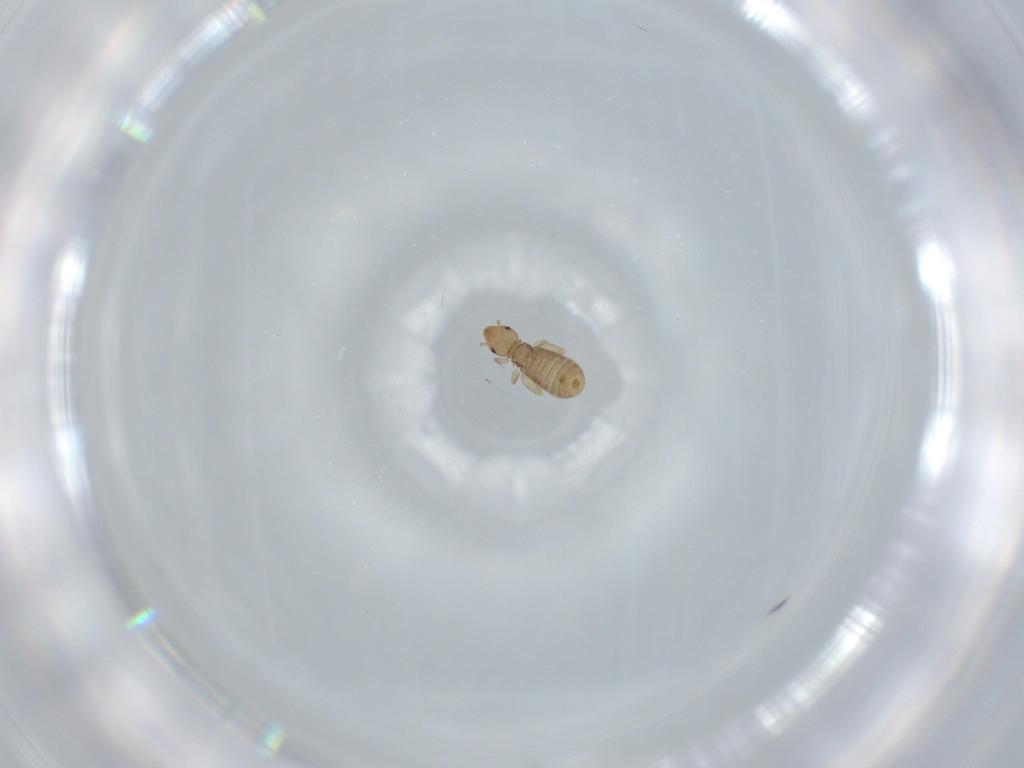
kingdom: Animalia
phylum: Arthropoda
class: Insecta
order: Psocodea
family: Liposcelididae
